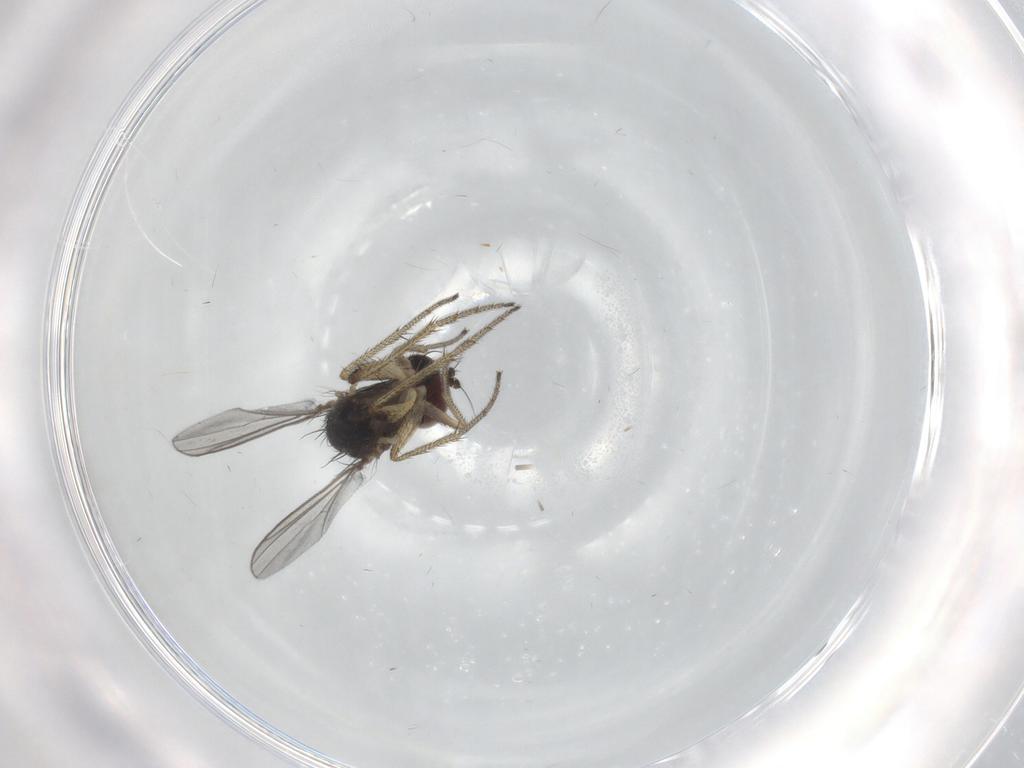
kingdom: Animalia
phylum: Arthropoda
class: Insecta
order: Diptera
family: Dolichopodidae
